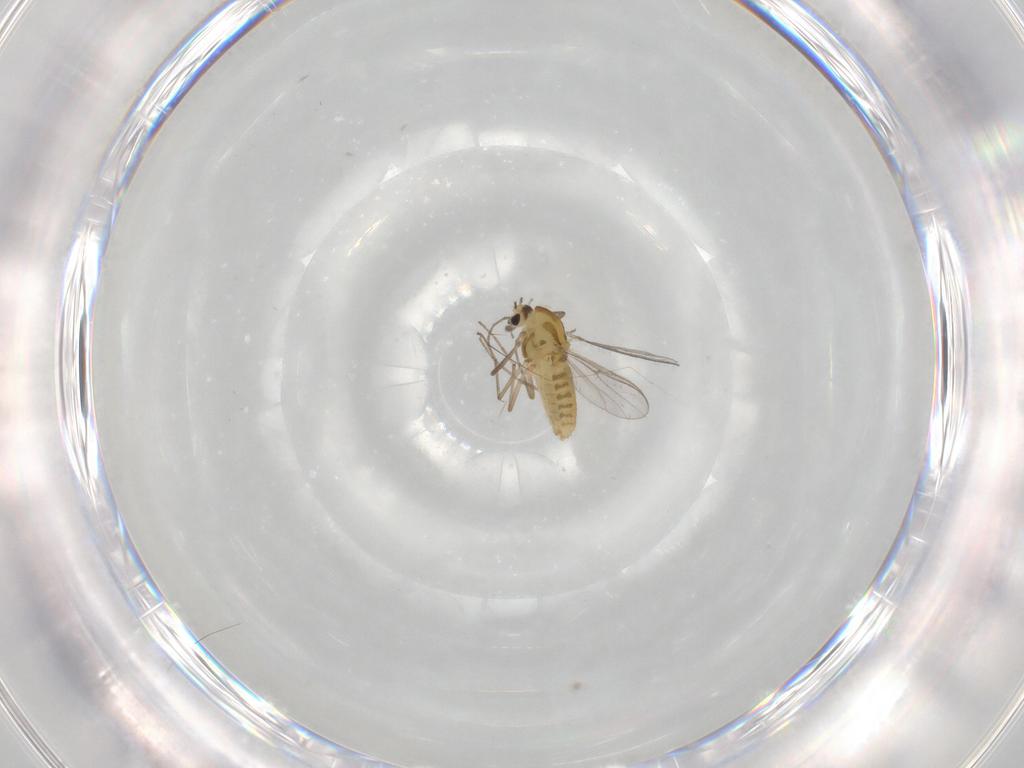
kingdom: Animalia
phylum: Arthropoda
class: Insecta
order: Diptera
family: Chironomidae
